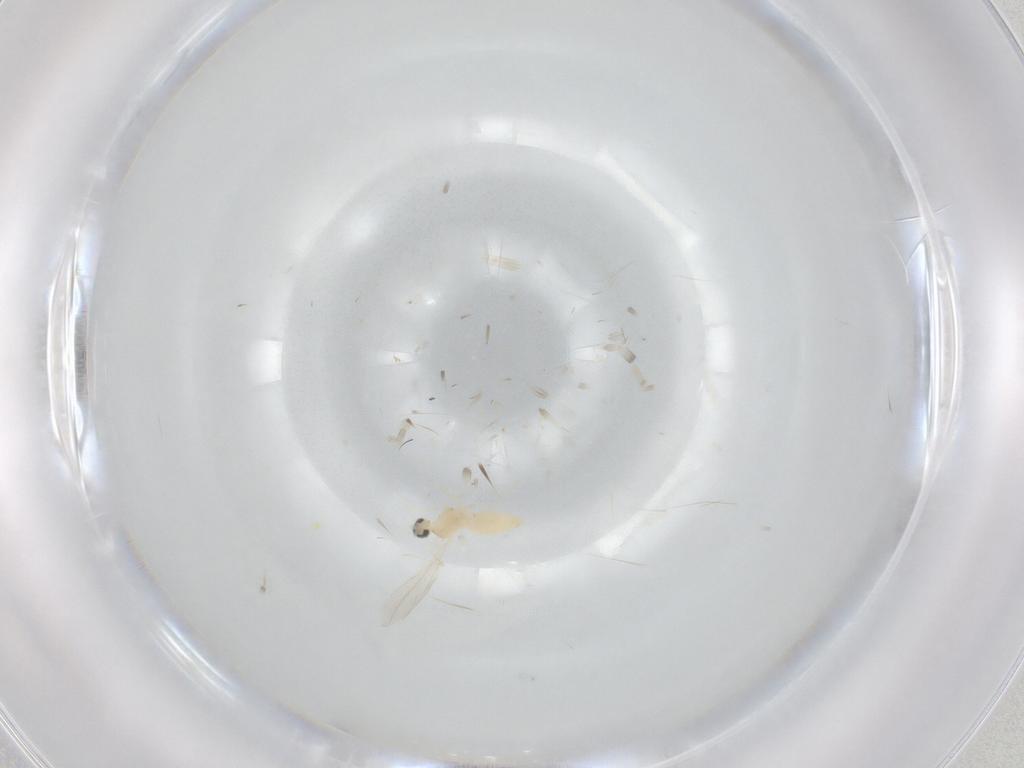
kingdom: Animalia
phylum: Arthropoda
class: Insecta
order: Diptera
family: Cecidomyiidae
